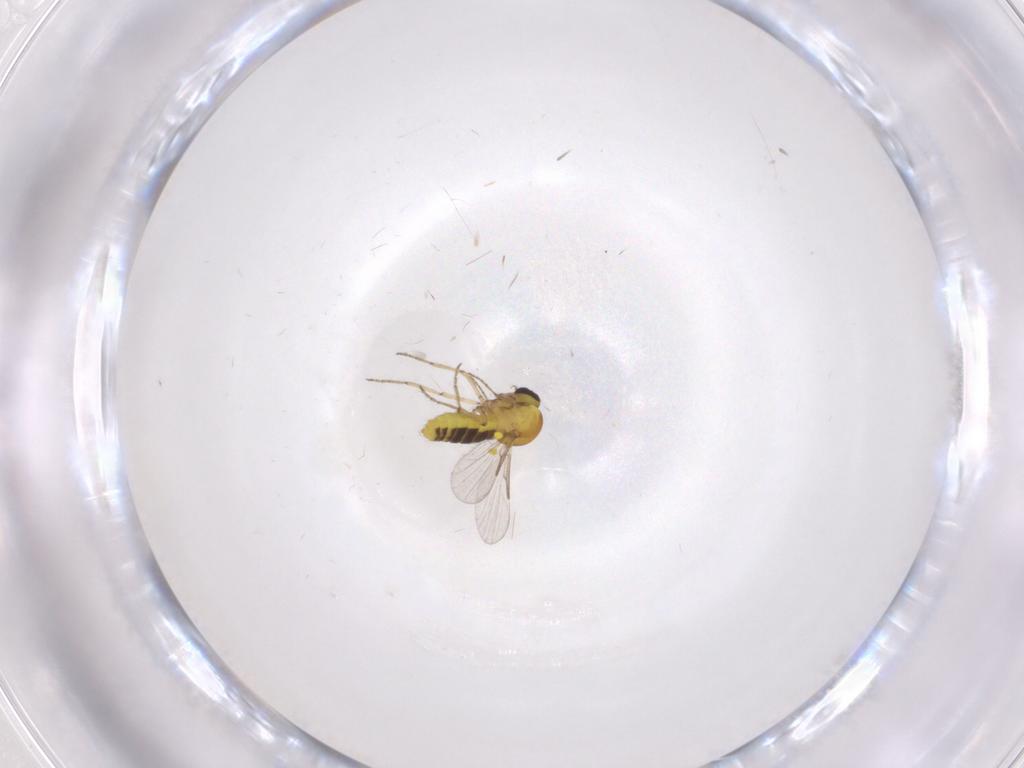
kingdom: Animalia
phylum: Arthropoda
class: Insecta
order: Diptera
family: Ceratopogonidae
